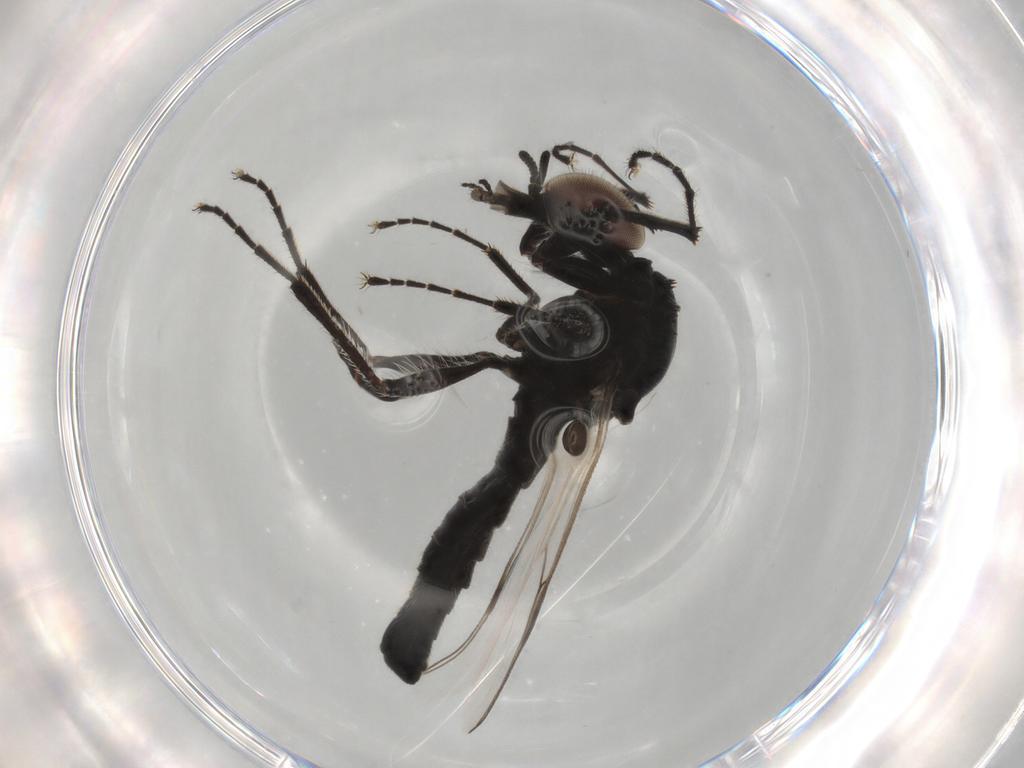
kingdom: Animalia
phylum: Arthropoda
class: Insecta
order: Diptera
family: Calliphoridae
